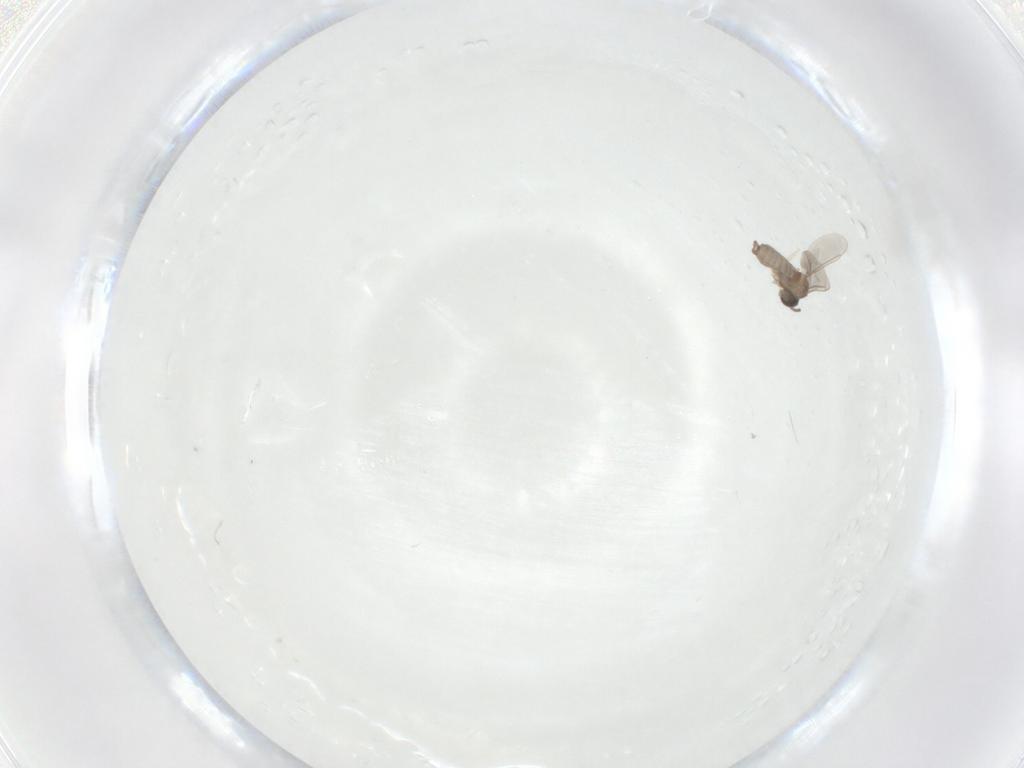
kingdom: Animalia
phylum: Arthropoda
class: Insecta
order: Diptera
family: Cecidomyiidae
